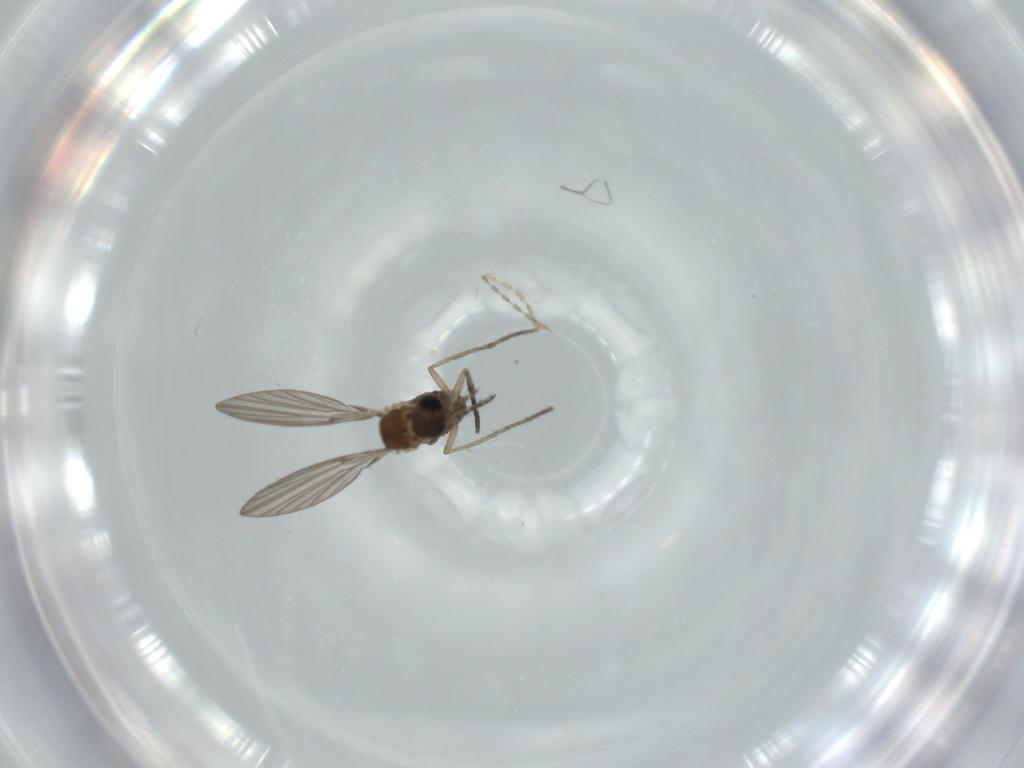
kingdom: Animalia
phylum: Arthropoda
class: Insecta
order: Diptera
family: Cecidomyiidae
